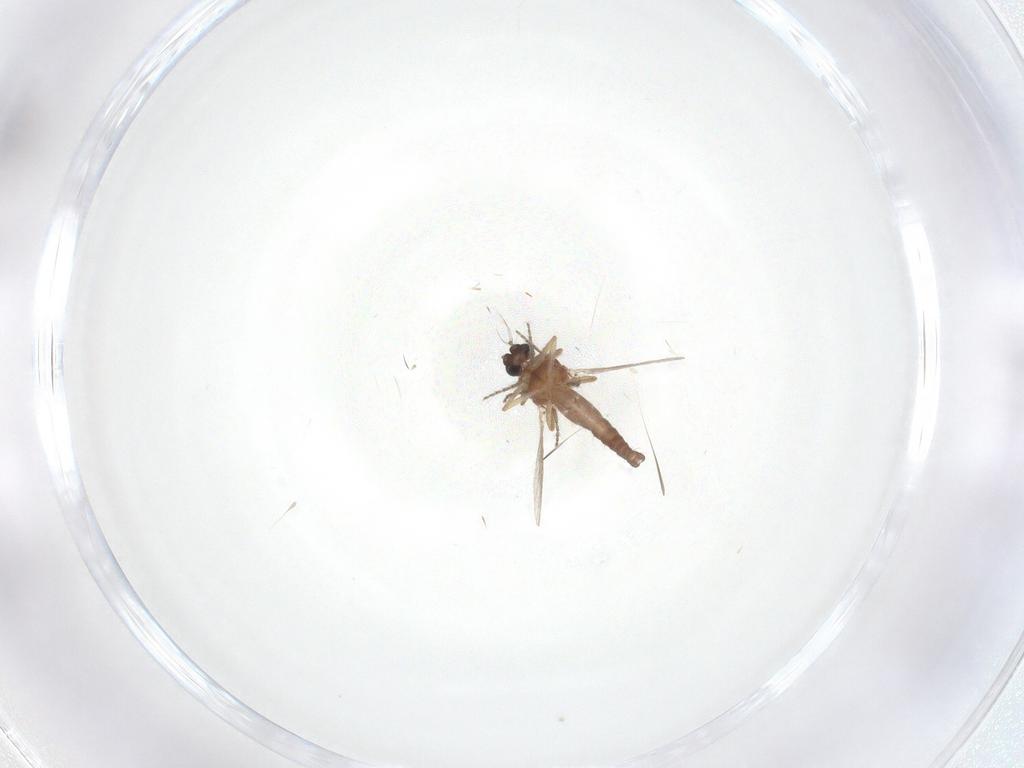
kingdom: Animalia
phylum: Arthropoda
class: Insecta
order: Diptera
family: Ceratopogonidae
